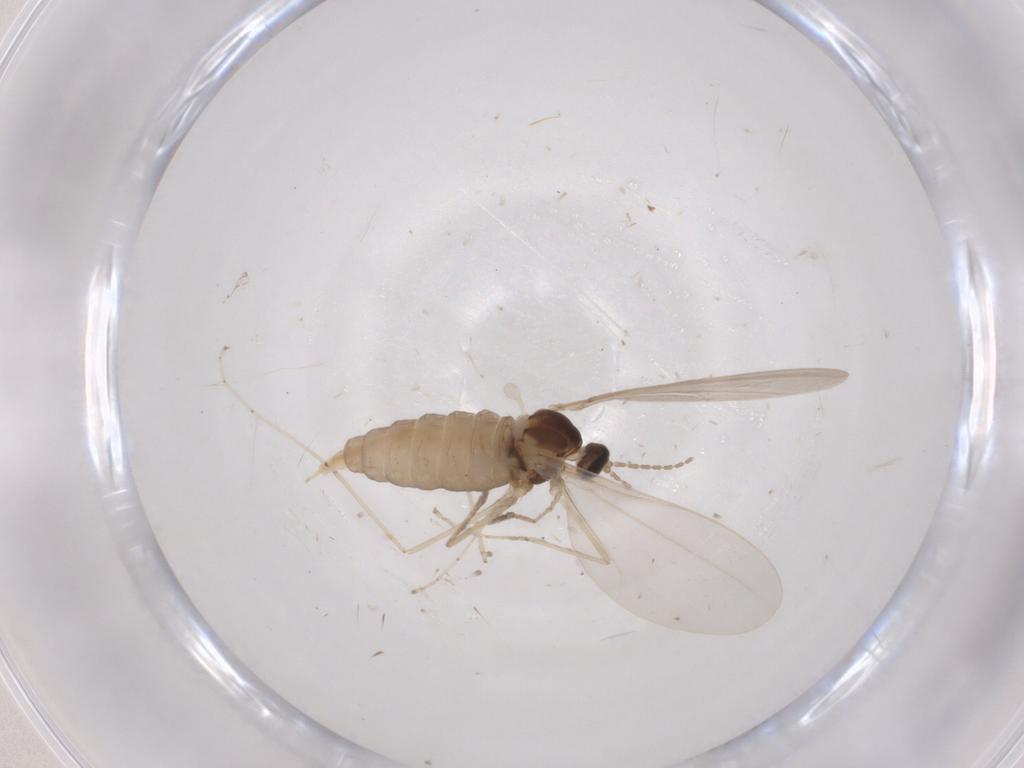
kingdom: Animalia
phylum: Arthropoda
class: Insecta
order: Diptera
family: Cecidomyiidae
